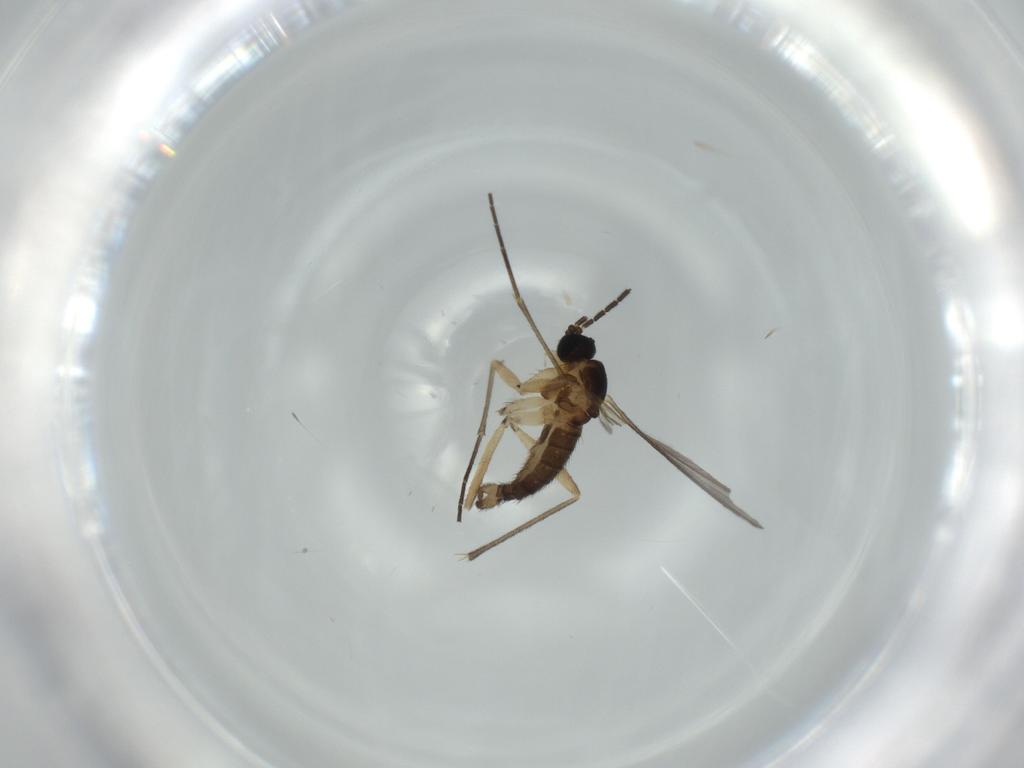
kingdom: Animalia
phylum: Arthropoda
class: Insecta
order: Diptera
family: Sciaridae
